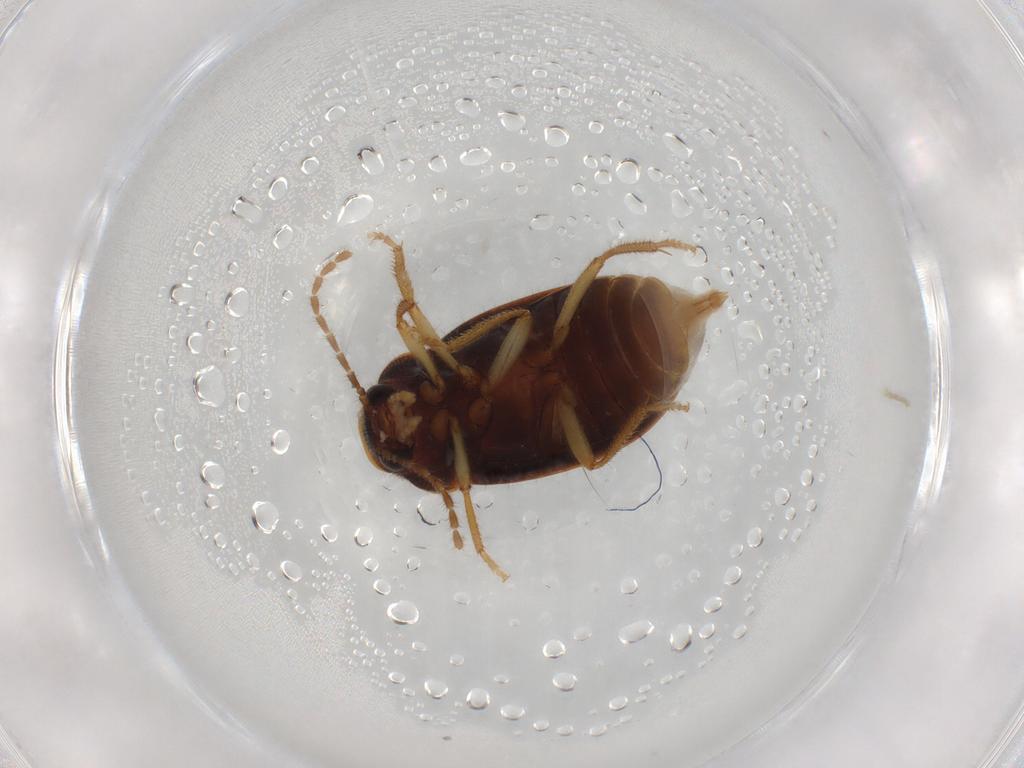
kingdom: Animalia
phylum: Arthropoda
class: Insecta
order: Coleoptera
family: Ptilodactylidae
